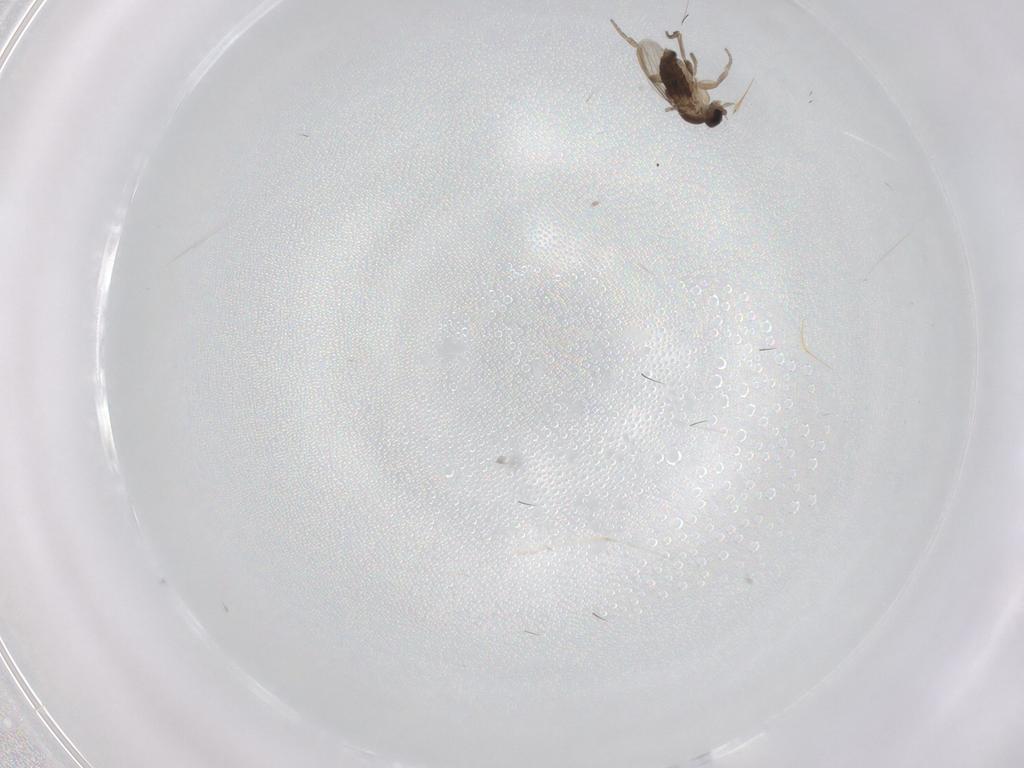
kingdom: Animalia
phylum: Arthropoda
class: Insecta
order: Diptera
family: Phoridae
